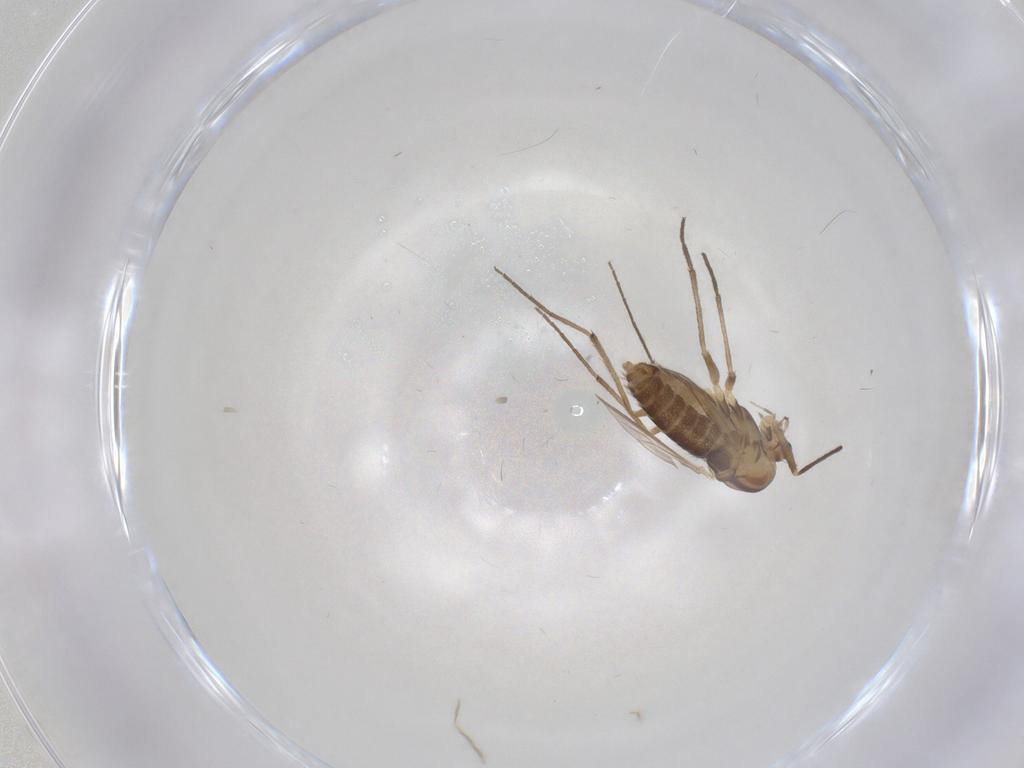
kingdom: Animalia
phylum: Arthropoda
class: Insecta
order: Diptera
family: Chironomidae
